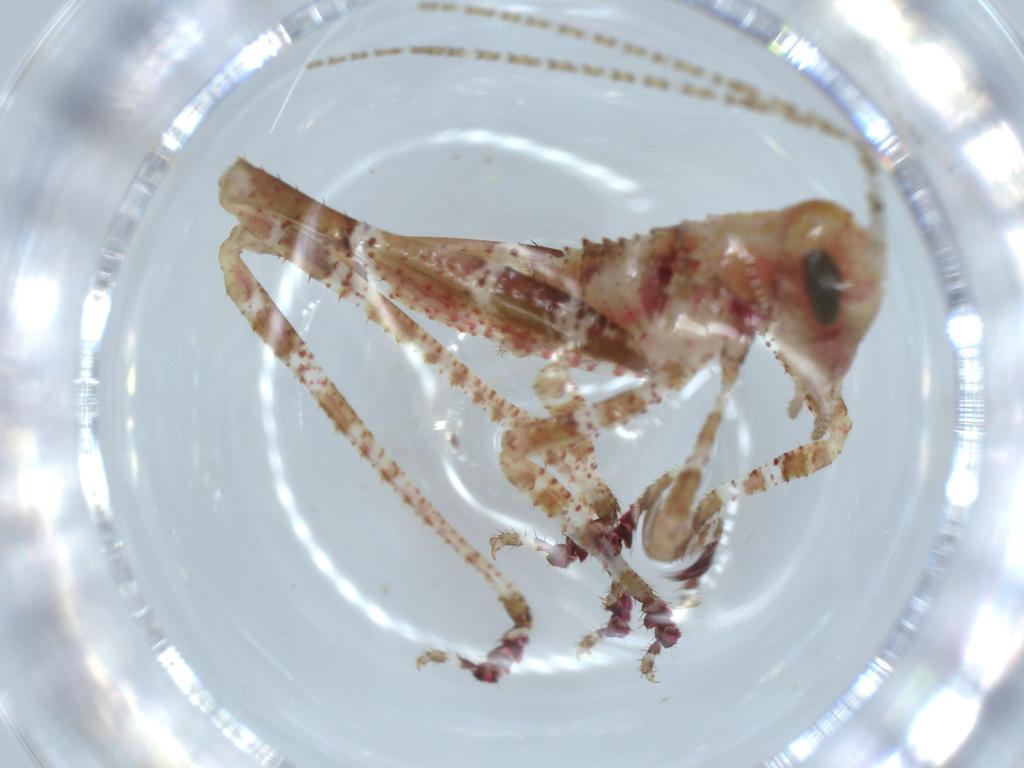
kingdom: Animalia
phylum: Arthropoda
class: Insecta
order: Orthoptera
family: Tettigoniidae
